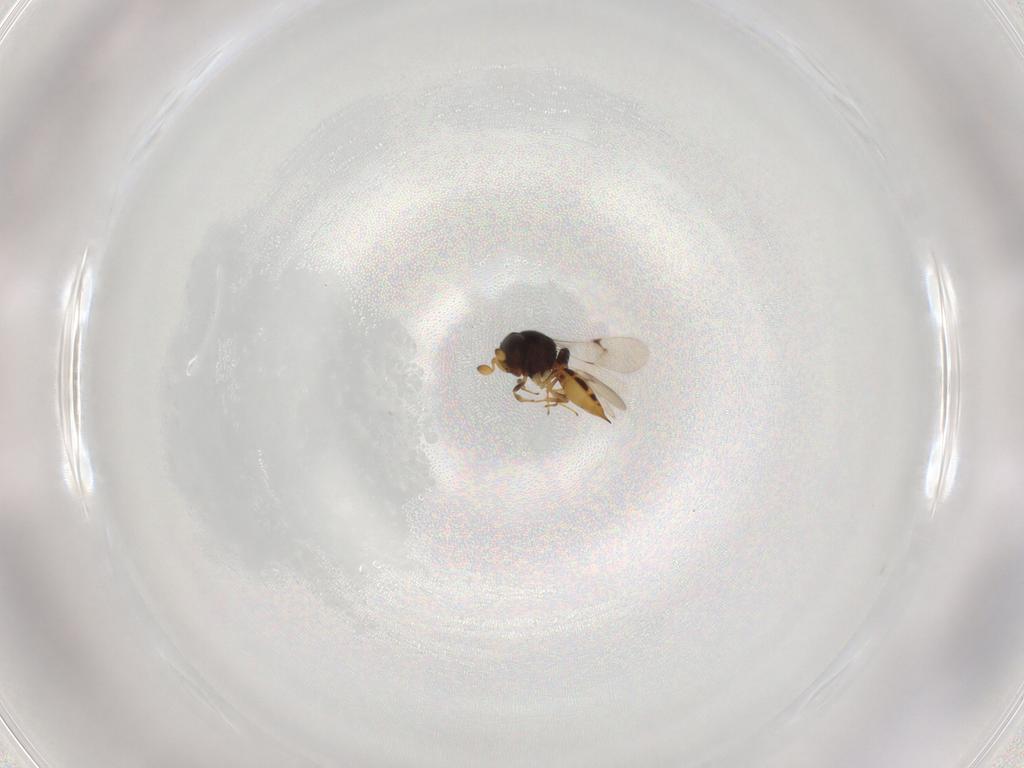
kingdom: Animalia
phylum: Arthropoda
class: Insecta
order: Hymenoptera
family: Scelionidae
